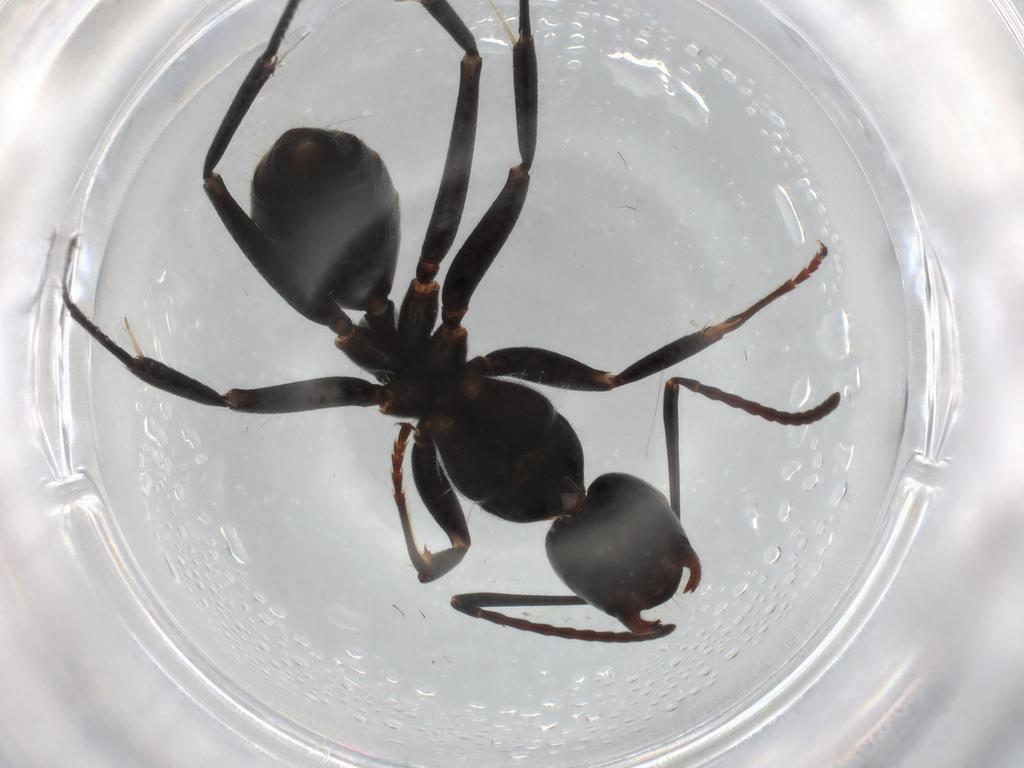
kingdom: Animalia
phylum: Arthropoda
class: Insecta
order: Hymenoptera
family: Formicidae
